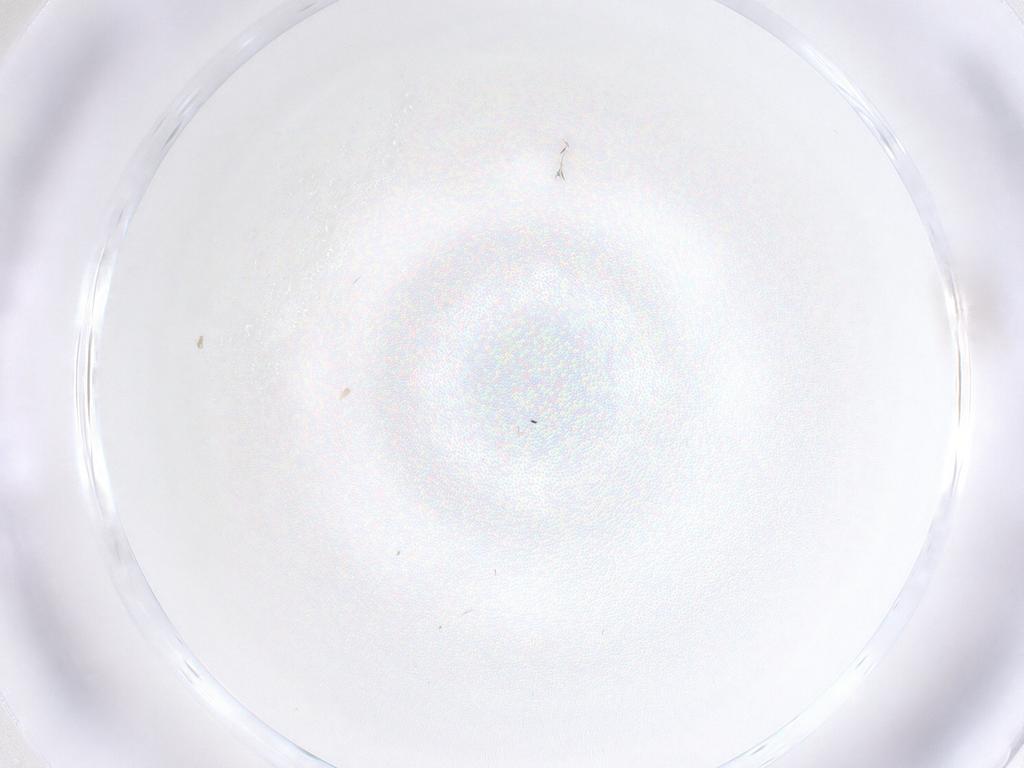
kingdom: Animalia
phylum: Arthropoda
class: Insecta
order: Diptera
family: Cecidomyiidae
